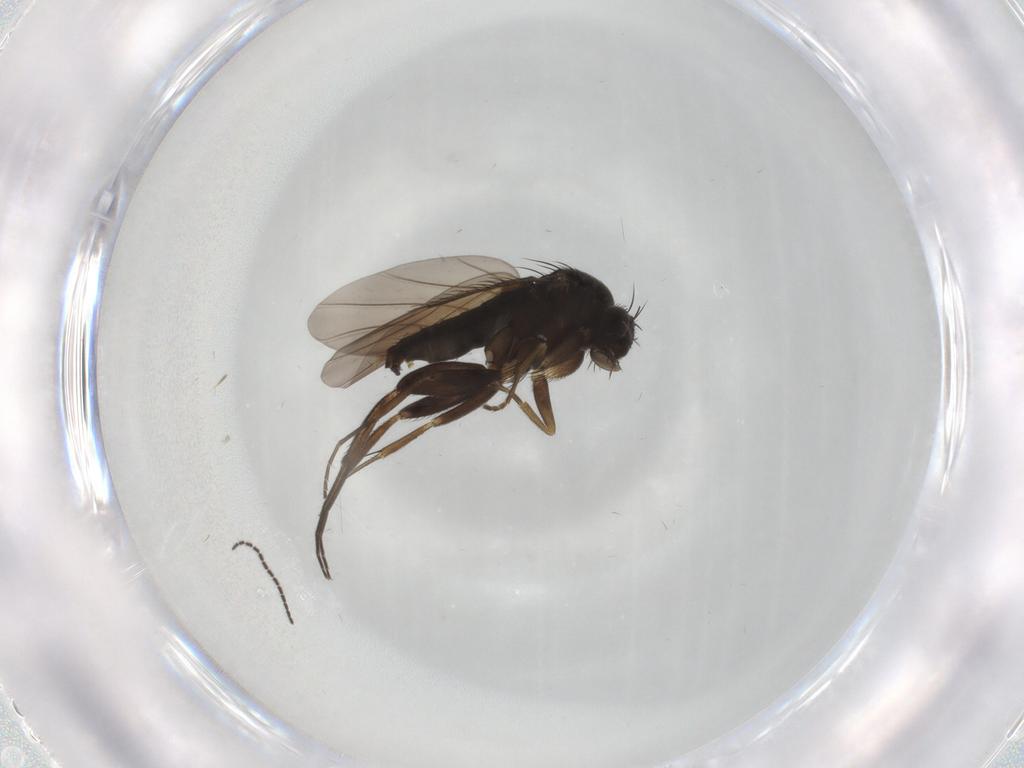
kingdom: Animalia
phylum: Arthropoda
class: Insecta
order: Diptera
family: Phoridae
